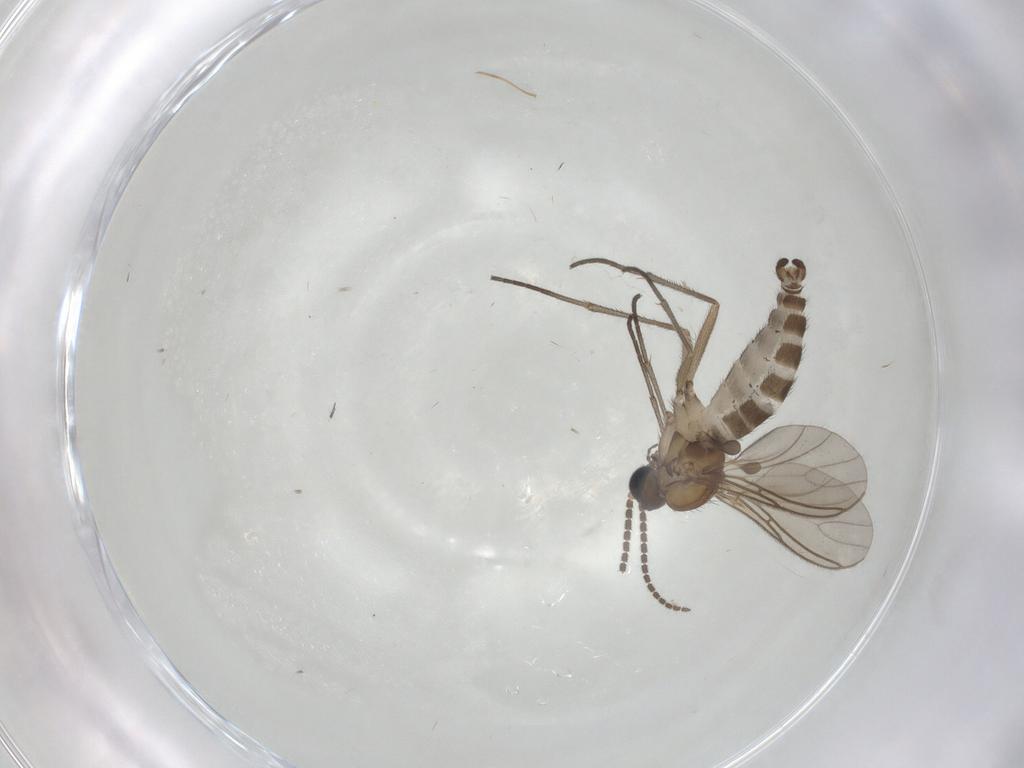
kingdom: Animalia
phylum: Arthropoda
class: Insecta
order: Diptera
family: Sciaridae
